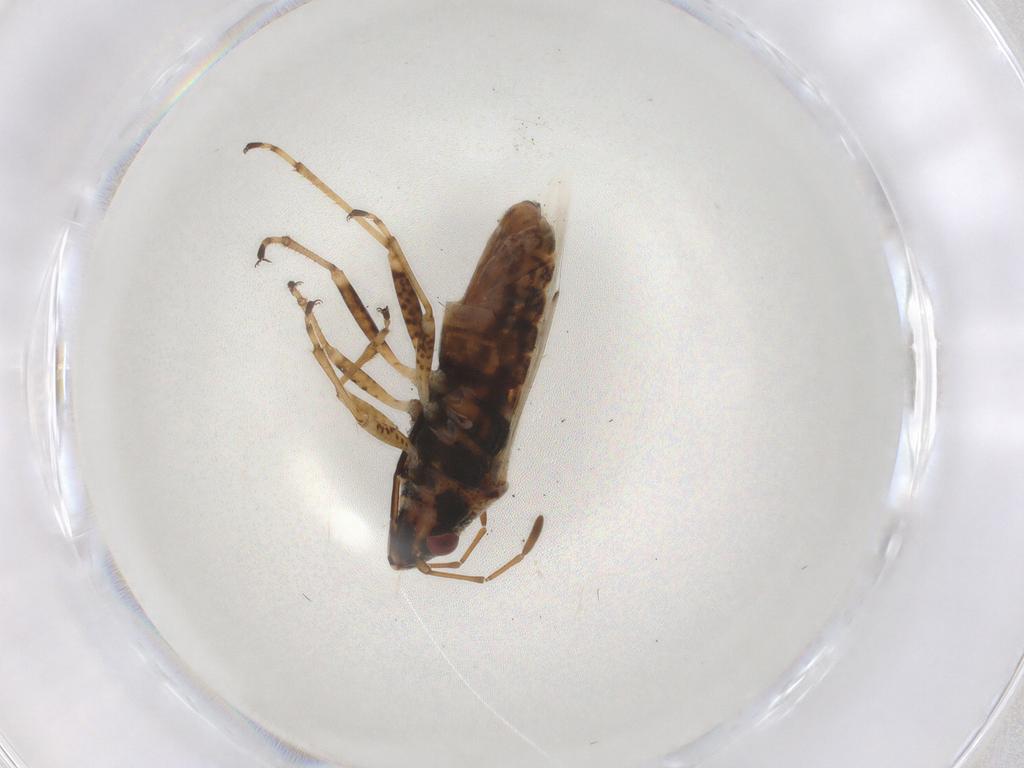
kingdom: Animalia
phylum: Arthropoda
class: Insecta
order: Hemiptera
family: Lygaeidae
